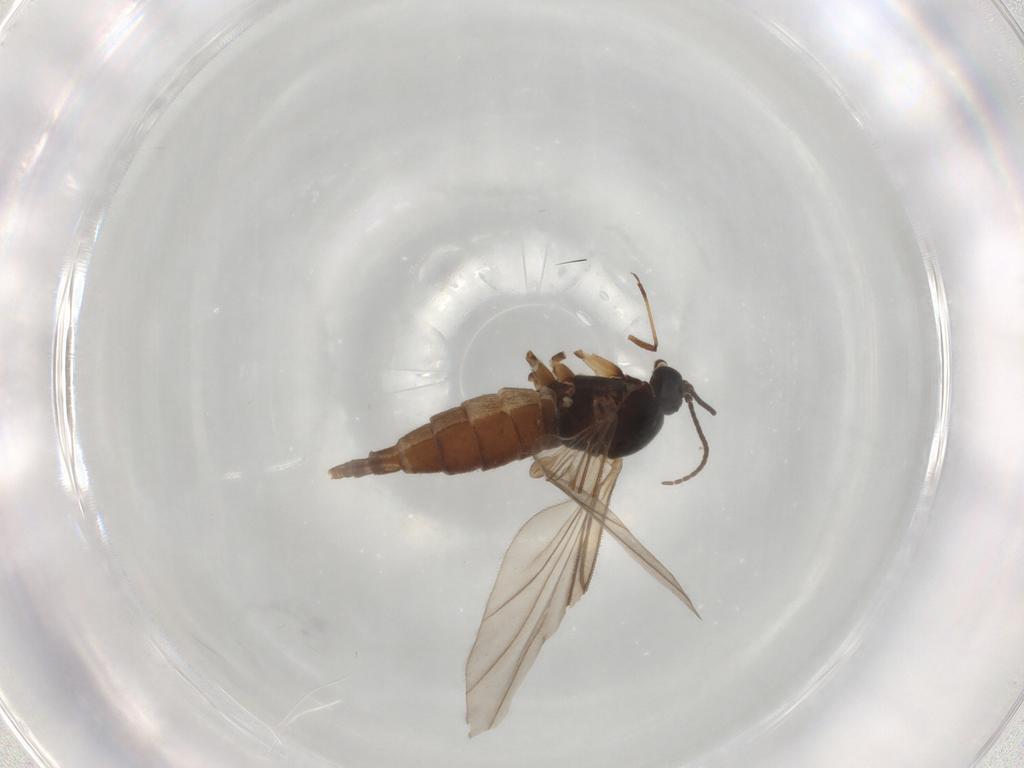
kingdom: Animalia
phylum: Arthropoda
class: Insecta
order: Diptera
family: Sciaridae
